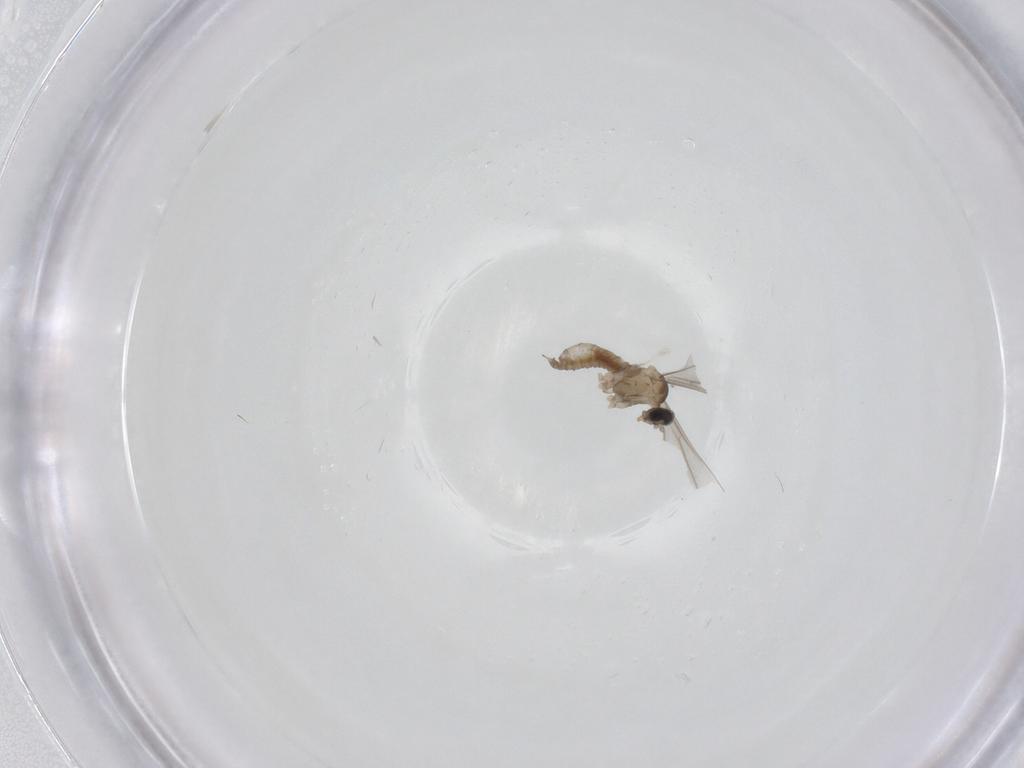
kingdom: Animalia
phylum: Arthropoda
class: Insecta
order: Diptera
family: Cecidomyiidae
